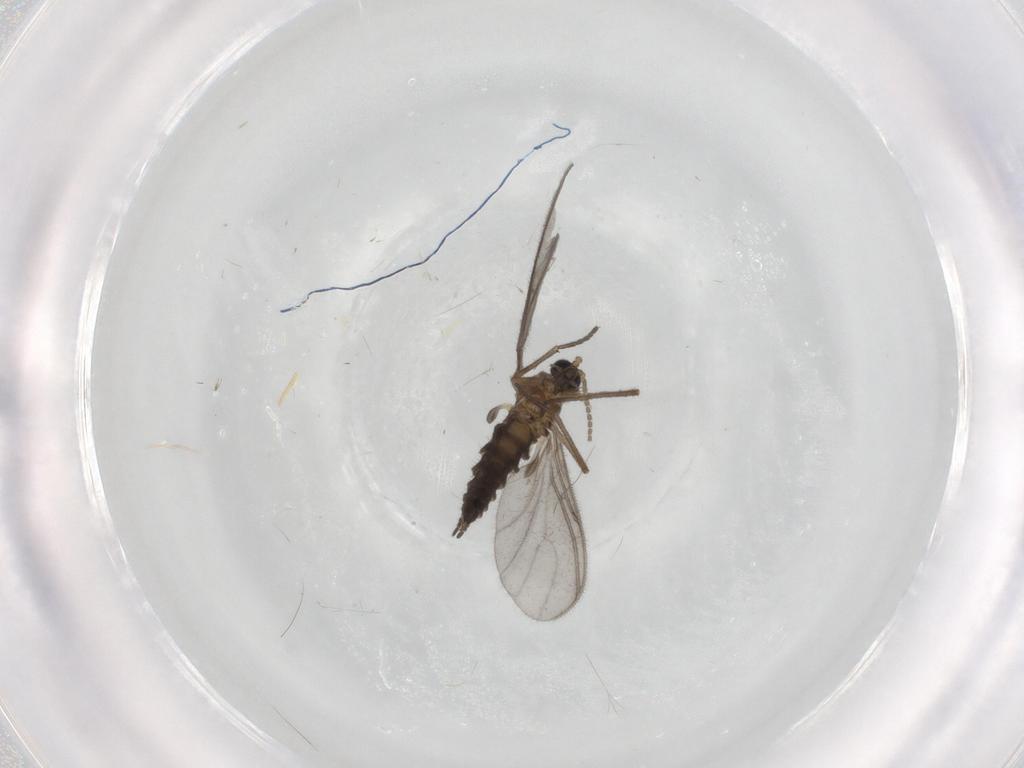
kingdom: Animalia
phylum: Arthropoda
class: Insecta
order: Diptera
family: Sciaridae
